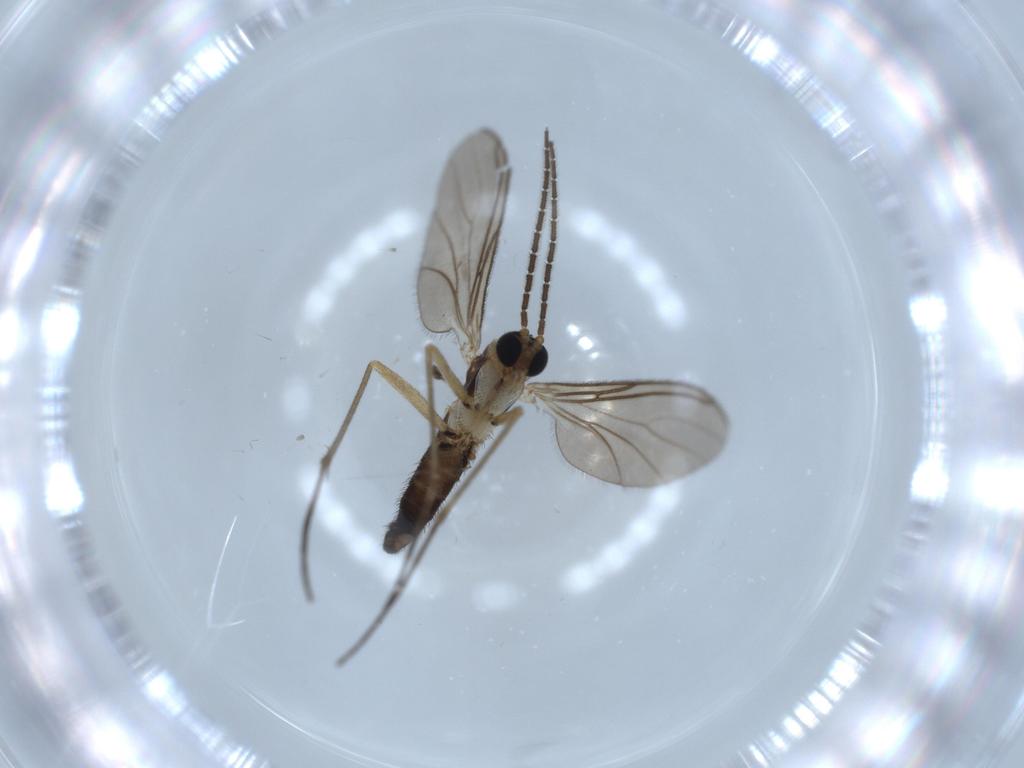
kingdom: Animalia
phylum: Arthropoda
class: Insecta
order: Diptera
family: Sciaridae
